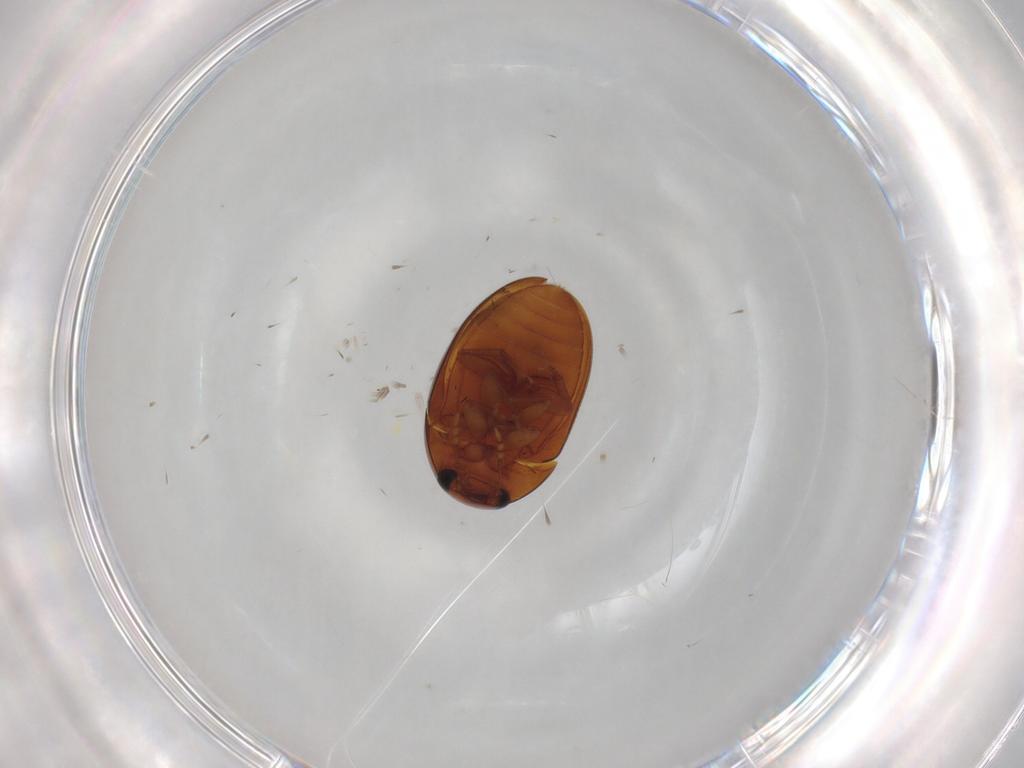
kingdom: Animalia
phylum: Arthropoda
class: Insecta
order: Coleoptera
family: Phalacridae
